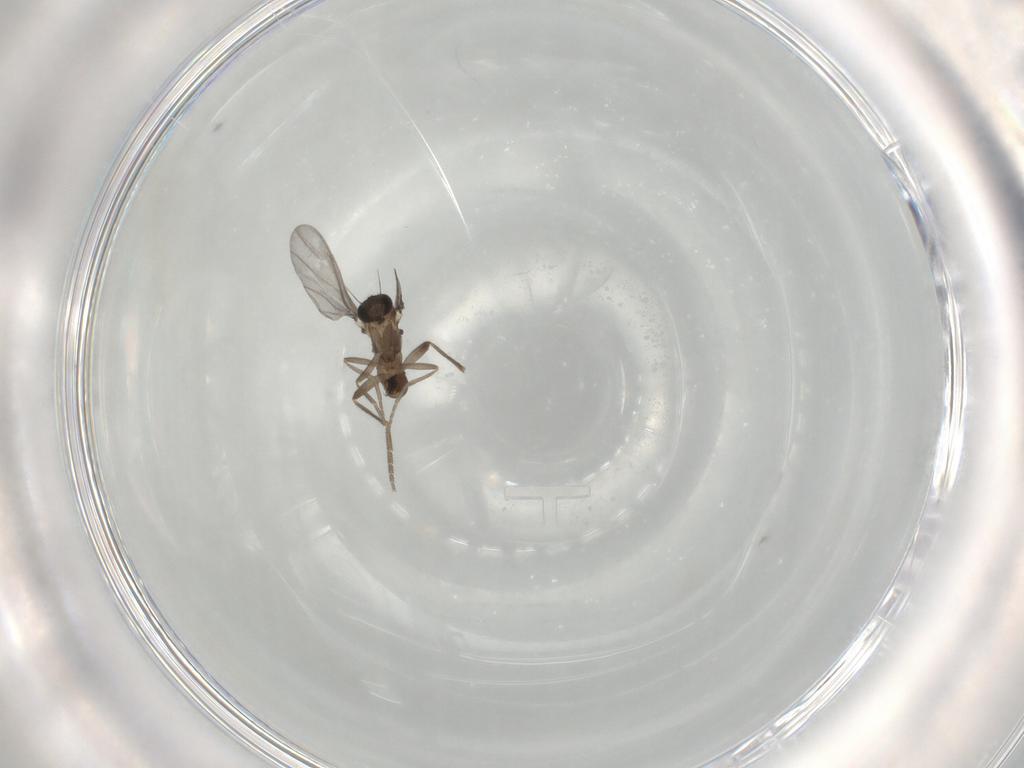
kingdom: Animalia
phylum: Arthropoda
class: Insecta
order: Diptera
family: Phoridae
